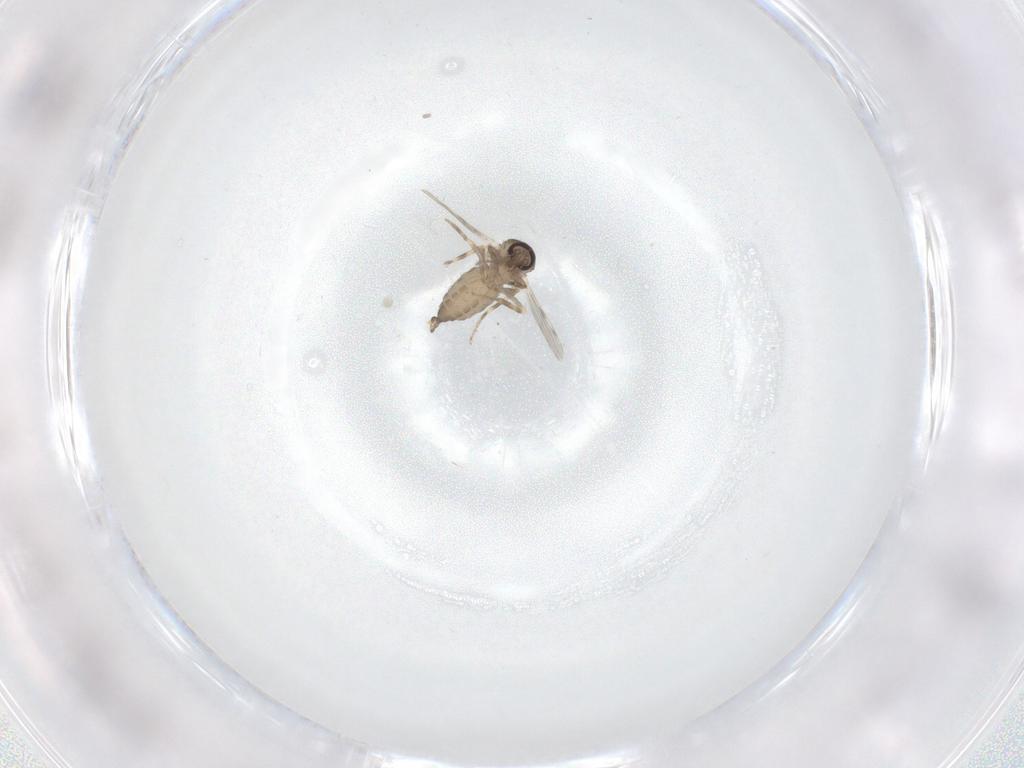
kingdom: Animalia
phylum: Arthropoda
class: Insecta
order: Diptera
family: Ceratopogonidae
